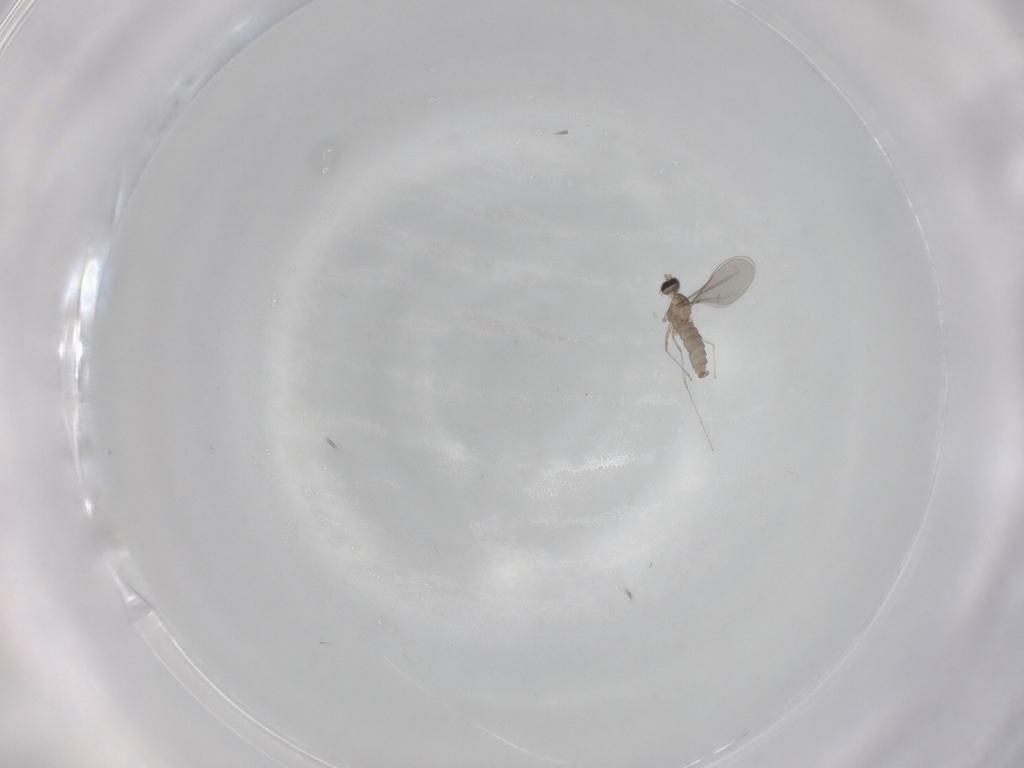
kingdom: Animalia
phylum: Arthropoda
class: Insecta
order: Diptera
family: Cecidomyiidae
